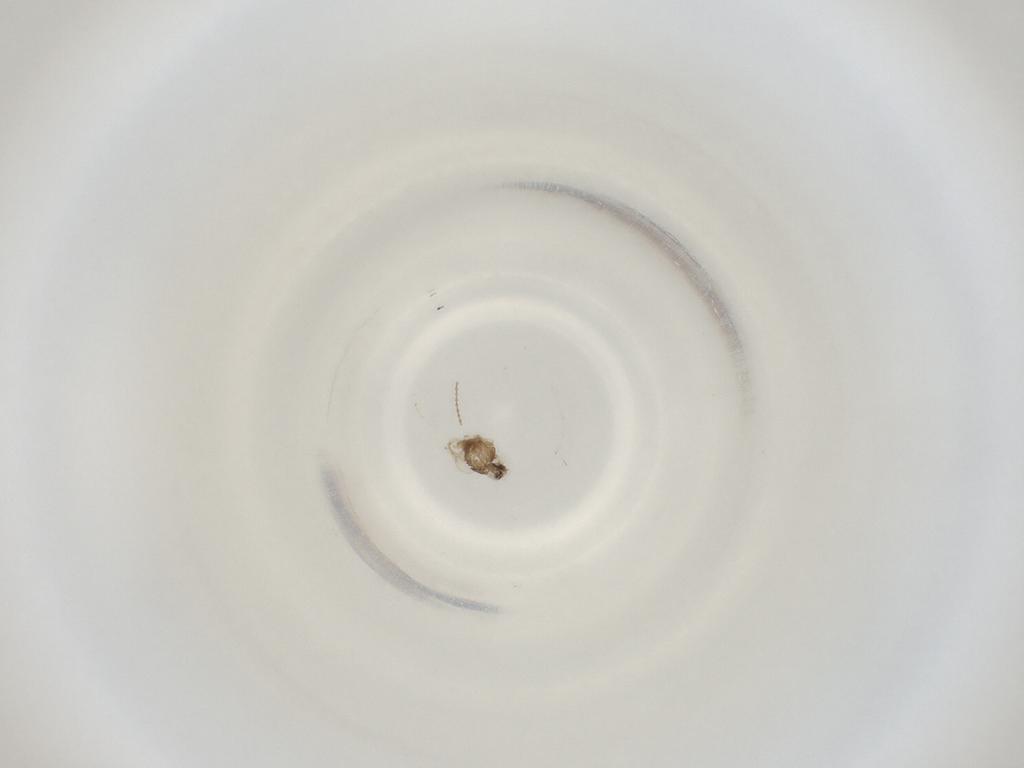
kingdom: Animalia
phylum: Arthropoda
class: Insecta
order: Diptera
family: Cecidomyiidae
